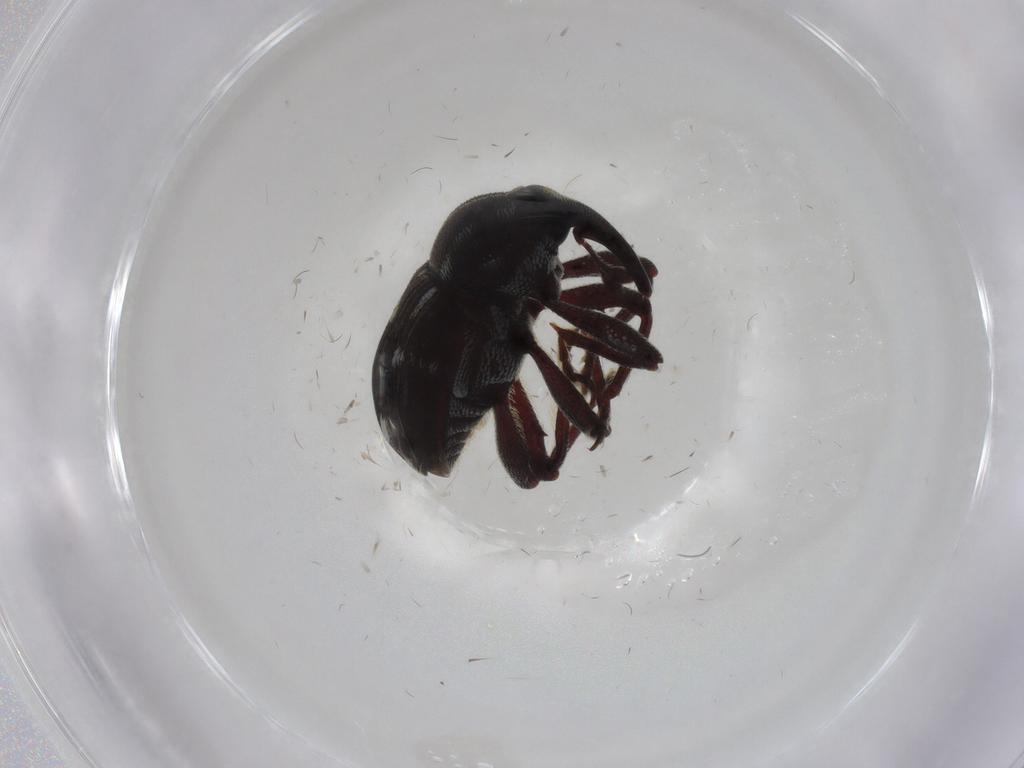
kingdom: Animalia
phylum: Arthropoda
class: Insecta
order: Coleoptera
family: Curculionidae
